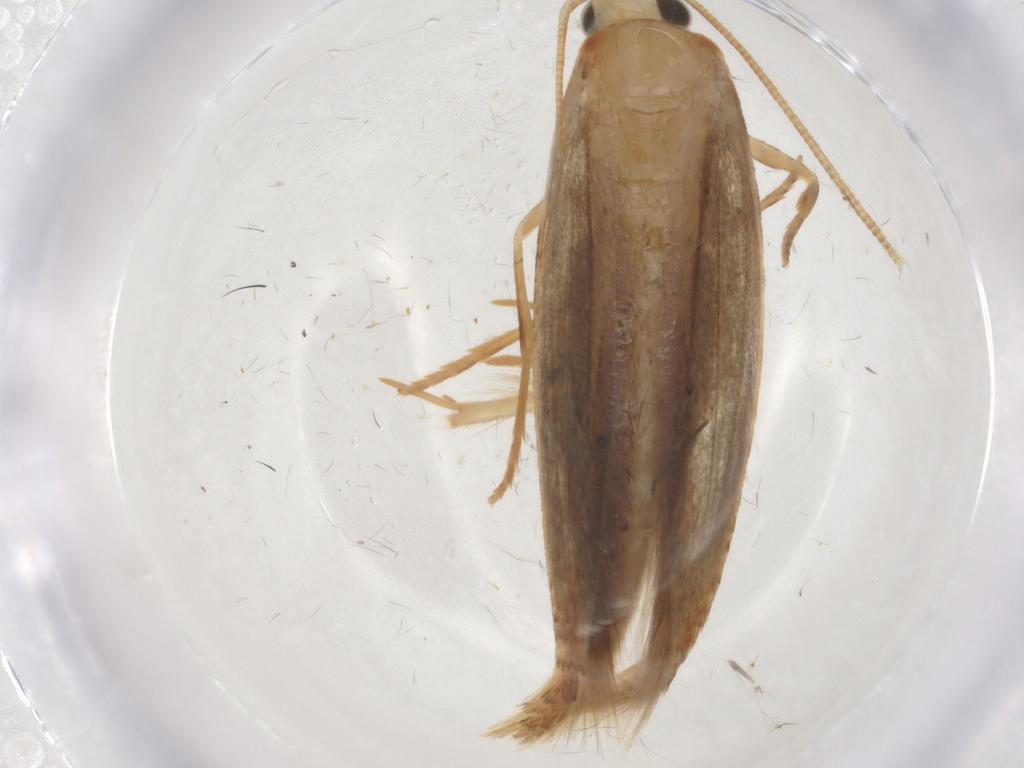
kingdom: Animalia
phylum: Arthropoda
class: Insecta
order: Lepidoptera
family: Tineidae
